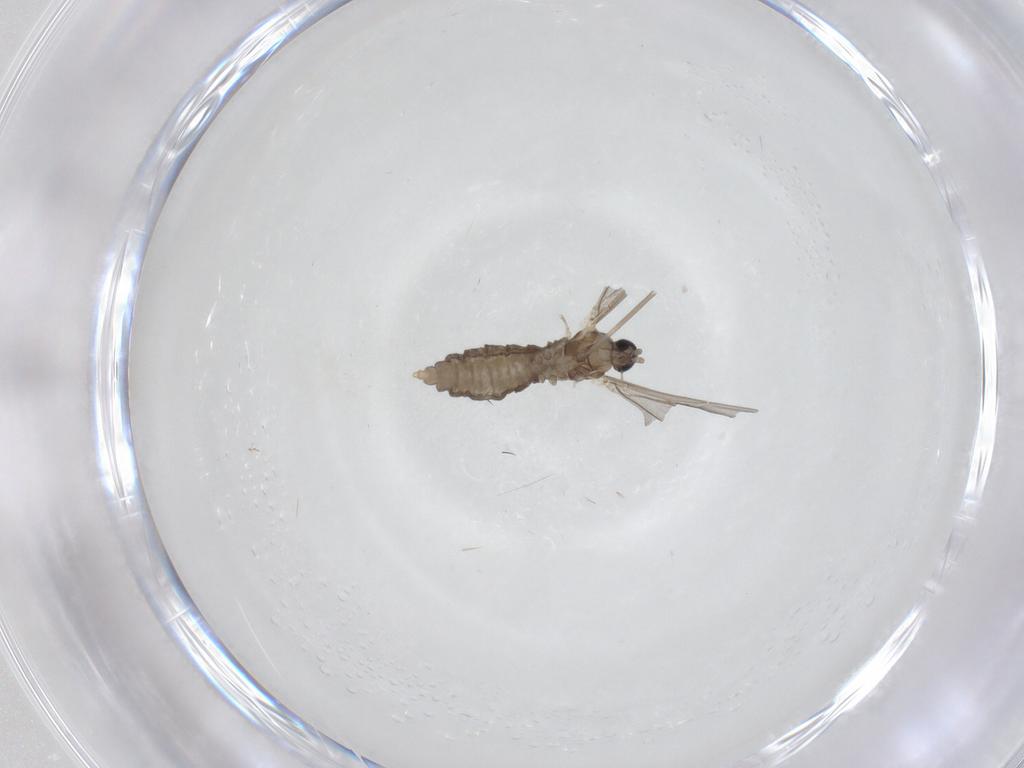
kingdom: Animalia
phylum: Arthropoda
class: Insecta
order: Diptera
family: Cecidomyiidae
